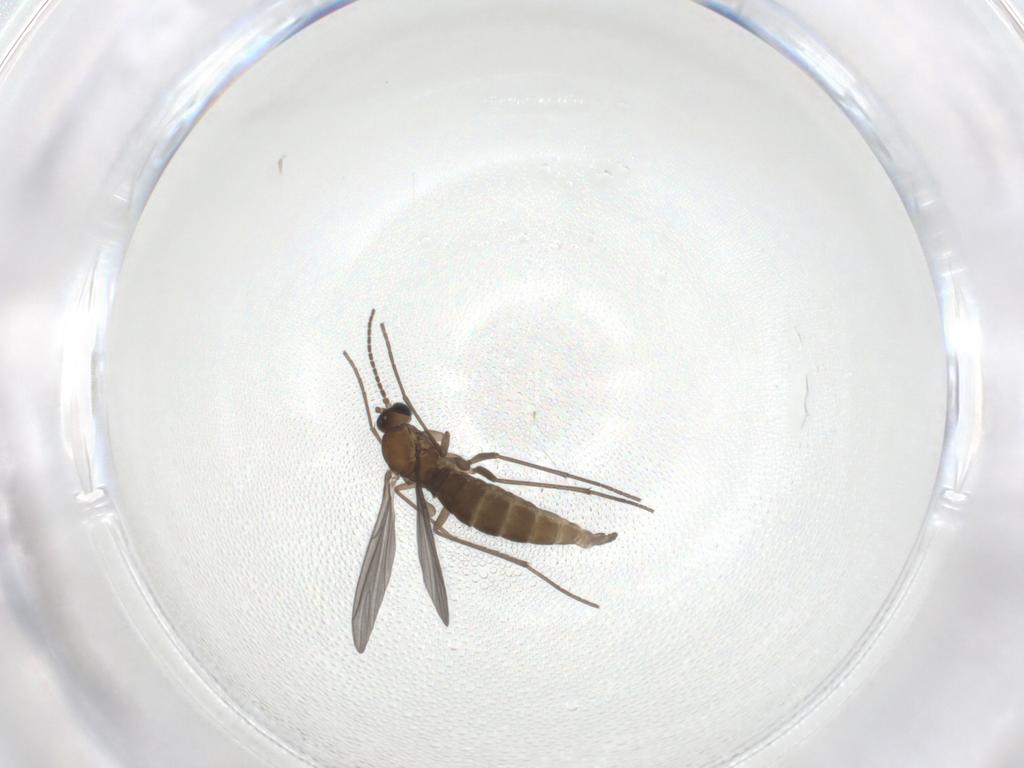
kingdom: Animalia
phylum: Arthropoda
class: Insecta
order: Diptera
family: Sciaridae
